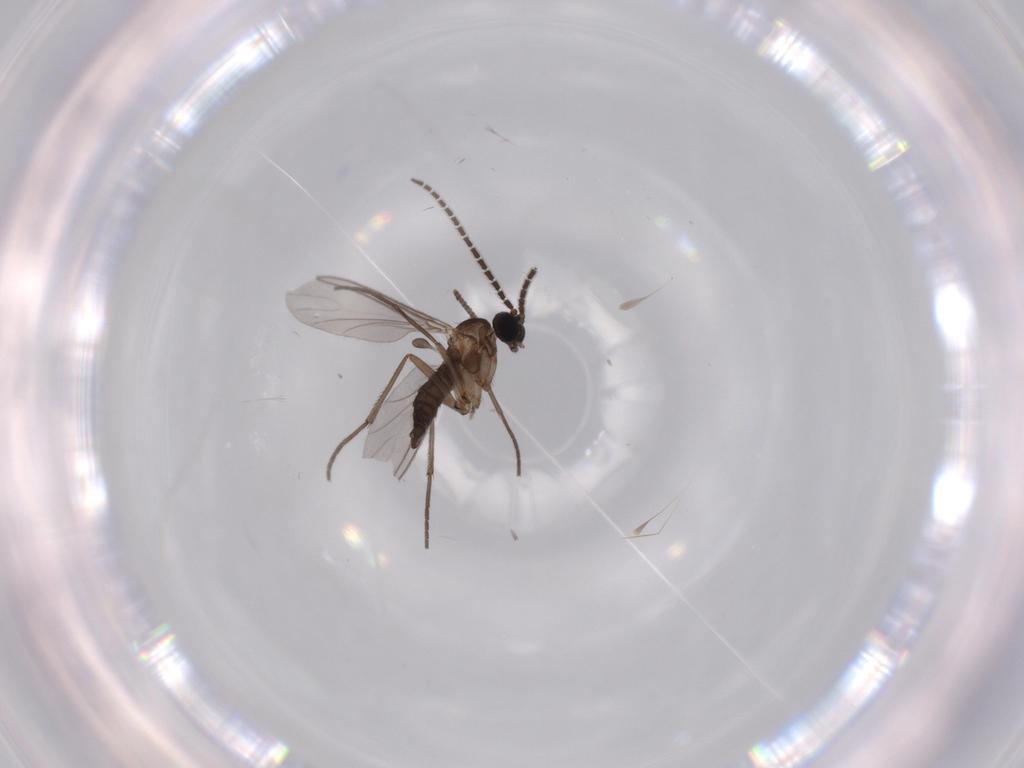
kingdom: Animalia
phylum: Arthropoda
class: Insecta
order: Diptera
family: Sciaridae
